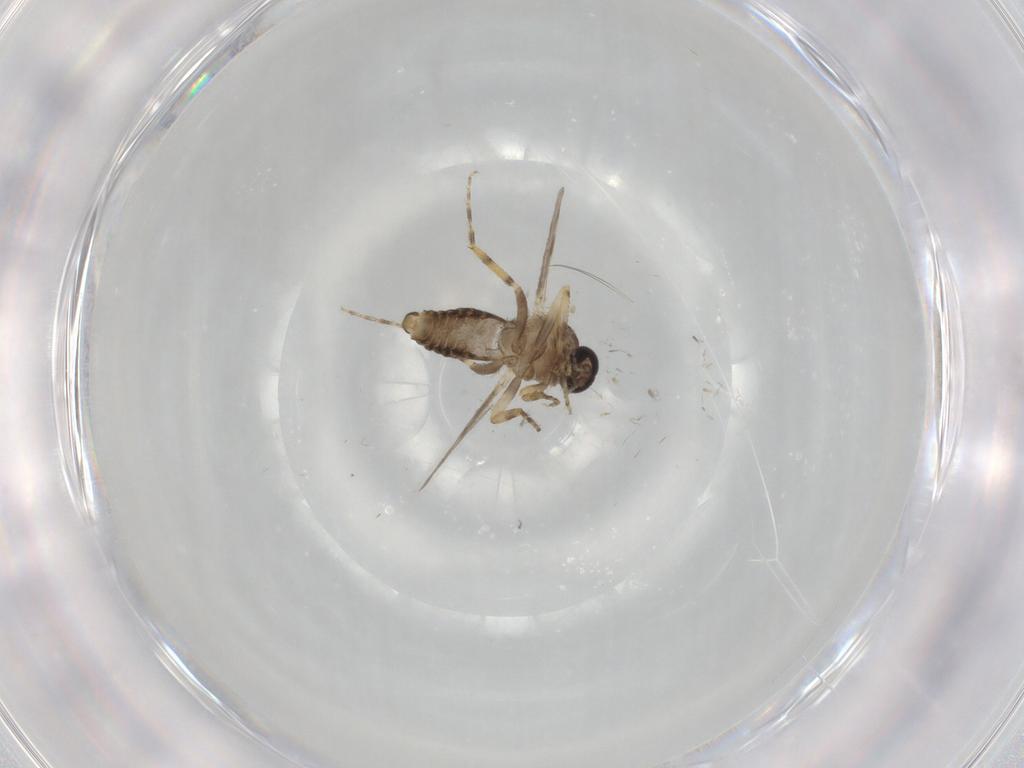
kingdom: Animalia
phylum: Arthropoda
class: Insecta
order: Diptera
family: Ceratopogonidae
